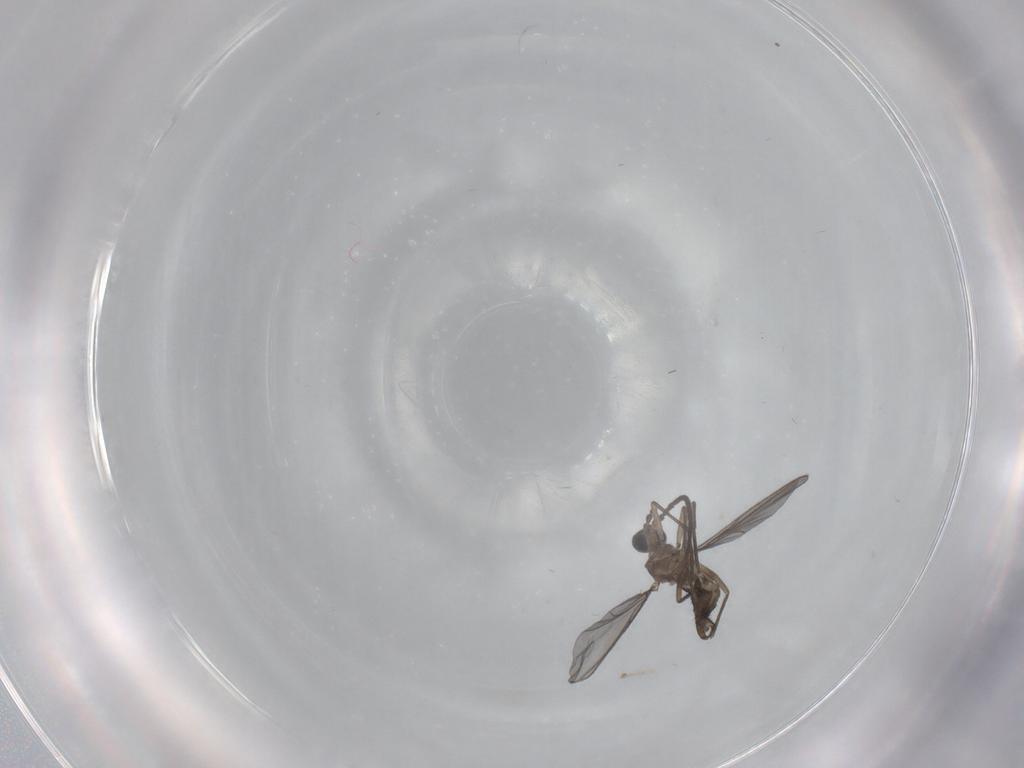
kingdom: Animalia
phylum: Arthropoda
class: Insecta
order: Diptera
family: Sciaridae
